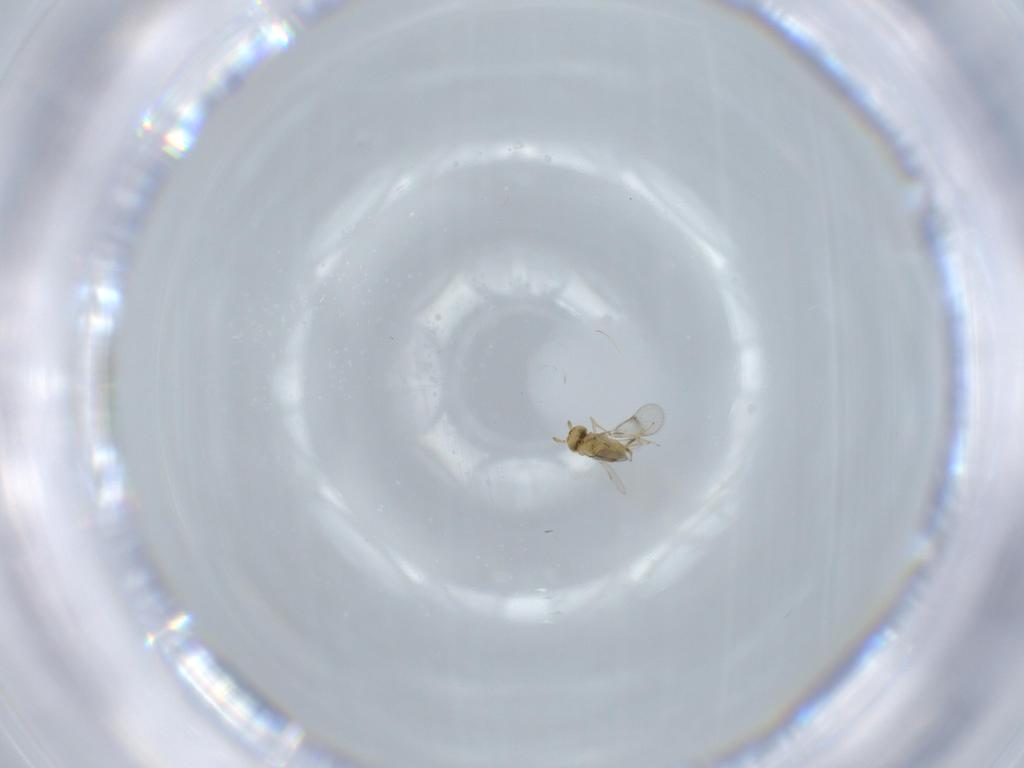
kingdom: Animalia
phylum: Arthropoda
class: Insecta
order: Hymenoptera
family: Aphelinidae
